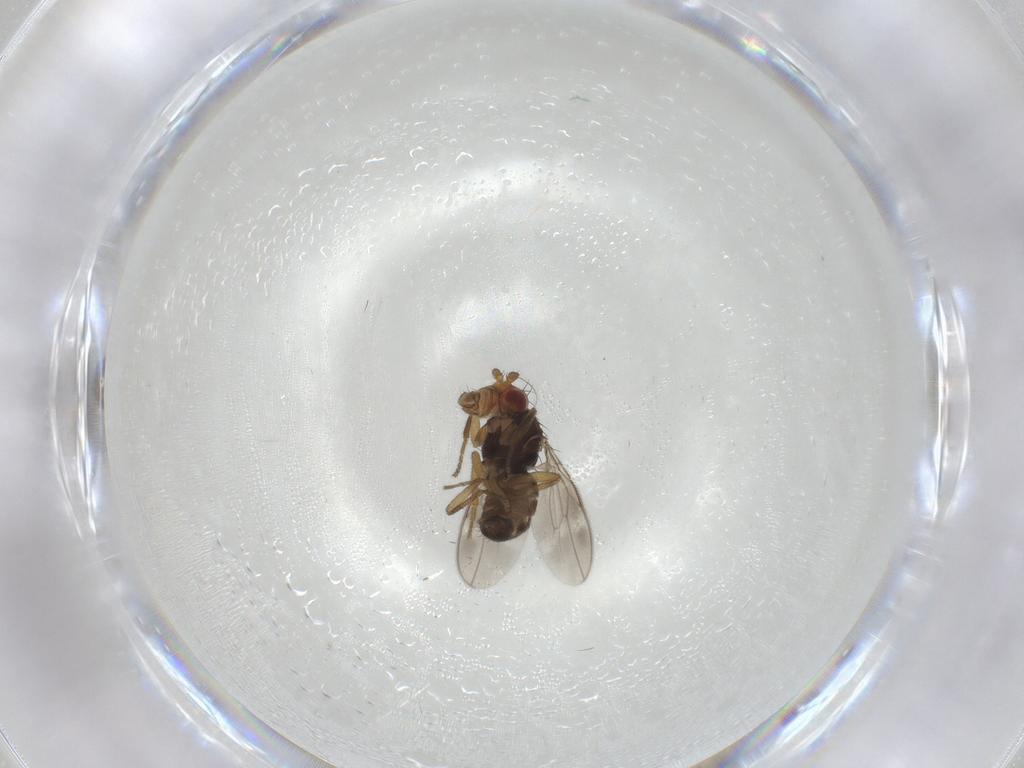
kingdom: Animalia
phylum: Arthropoda
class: Insecta
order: Diptera
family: Sphaeroceridae
